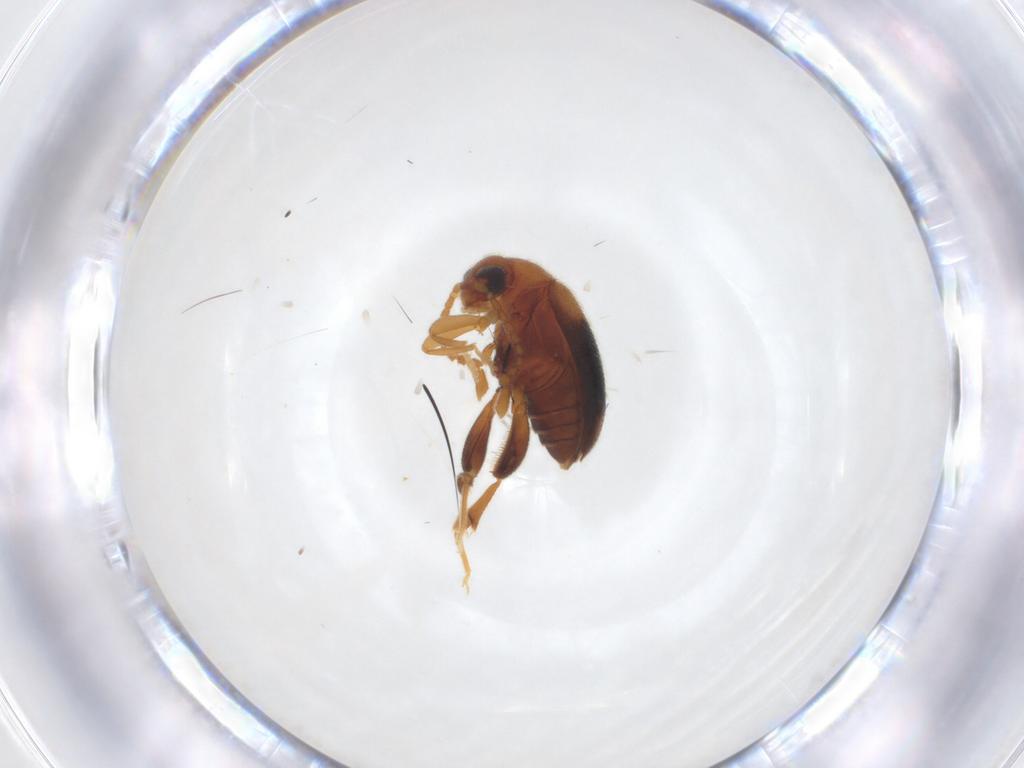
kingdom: Animalia
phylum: Arthropoda
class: Insecta
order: Coleoptera
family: Aderidae
